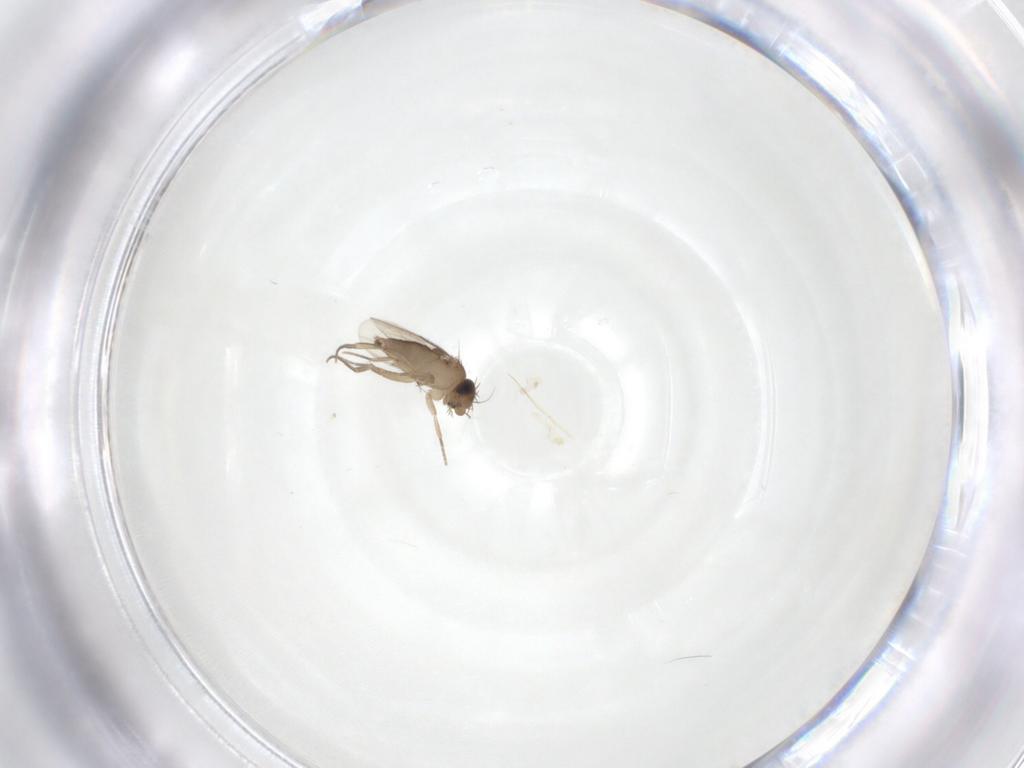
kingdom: Animalia
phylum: Arthropoda
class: Insecta
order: Diptera
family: Phoridae
